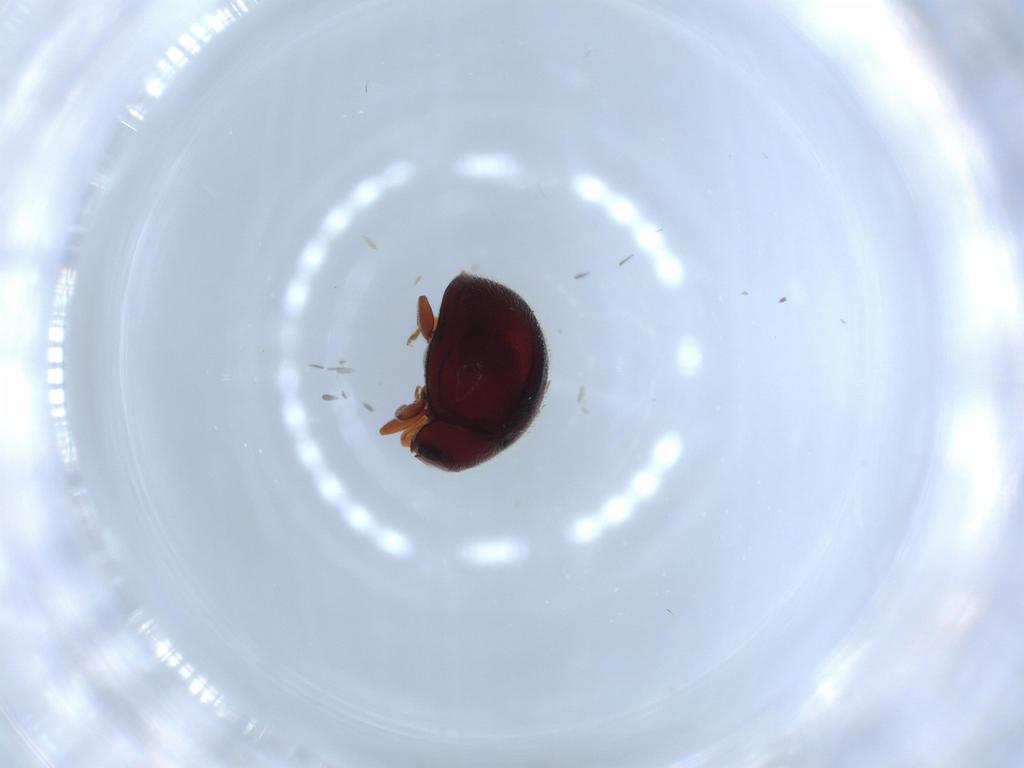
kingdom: Animalia
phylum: Arthropoda
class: Insecta
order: Coleoptera
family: Coccinellidae
